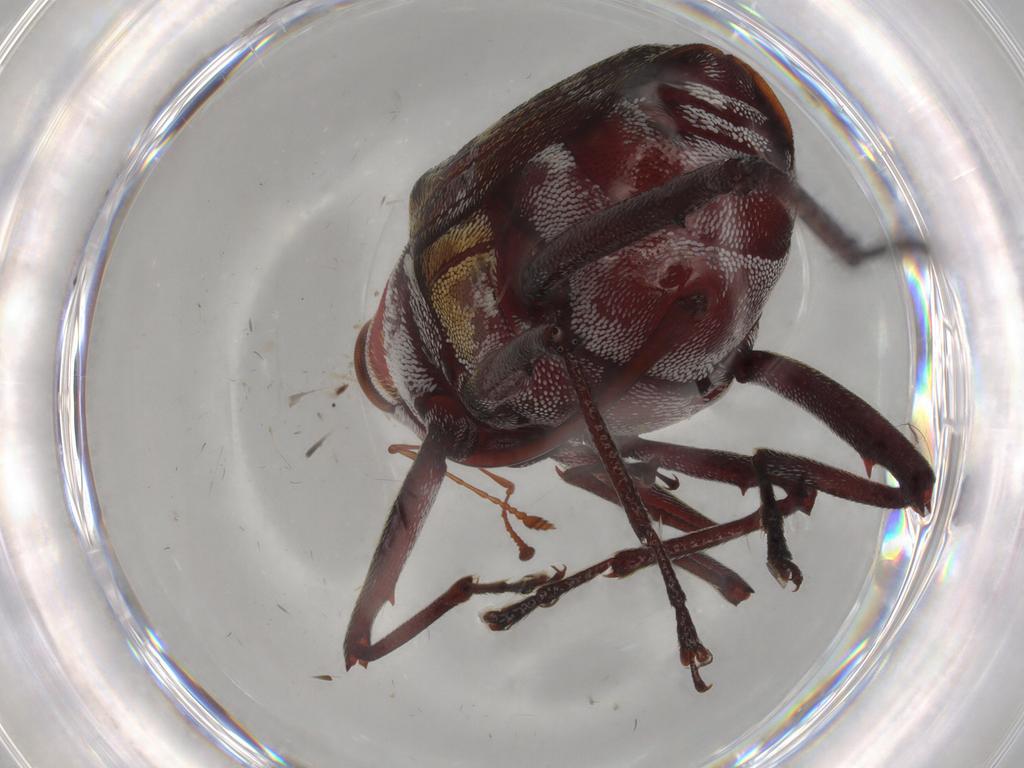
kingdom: Animalia
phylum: Arthropoda
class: Insecta
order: Coleoptera
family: Curculionidae
